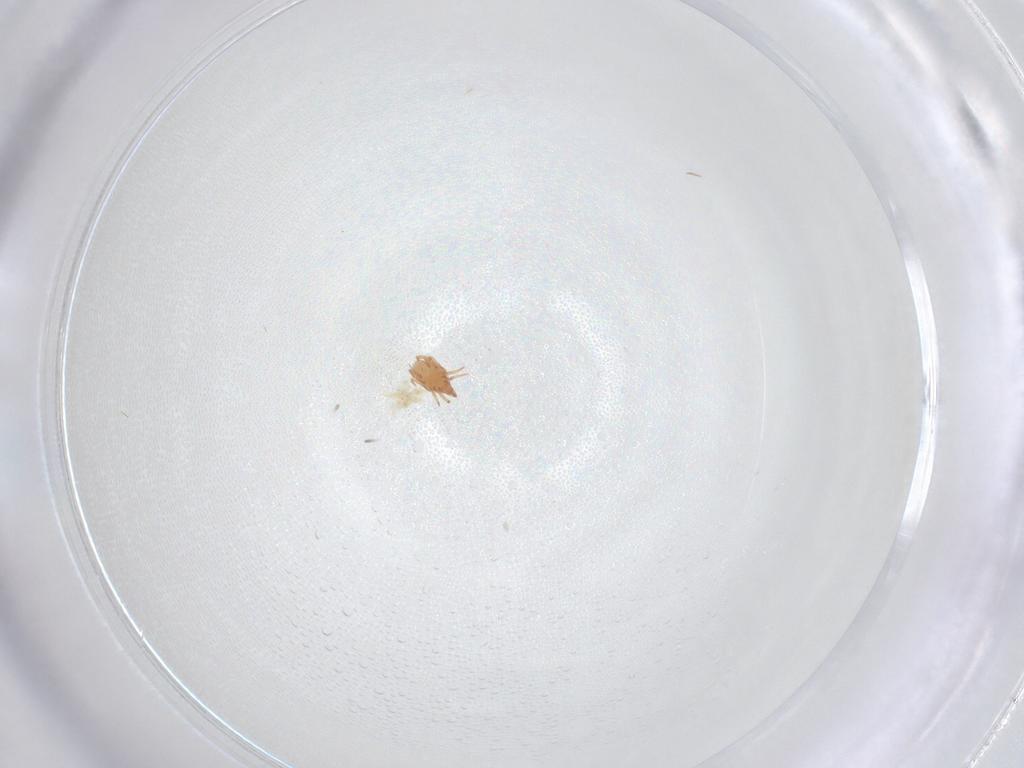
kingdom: Animalia
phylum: Arthropoda
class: Arachnida
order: Trombidiformes
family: Cunaxidae
